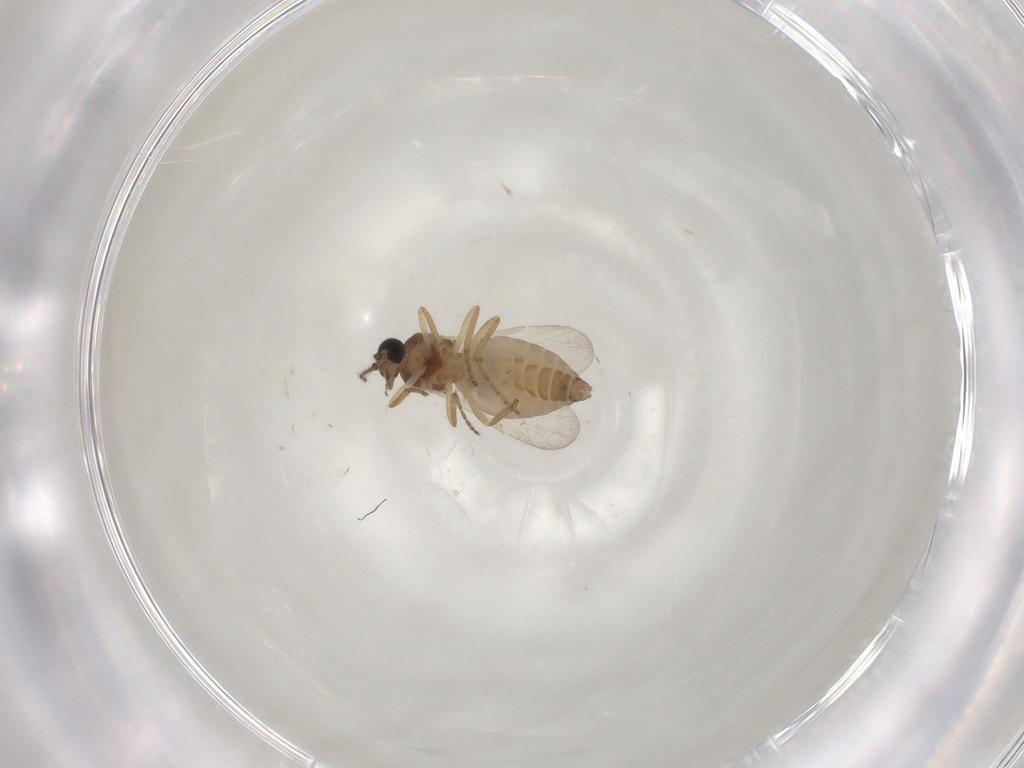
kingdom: Animalia
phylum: Arthropoda
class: Insecta
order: Diptera
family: Ceratopogonidae
